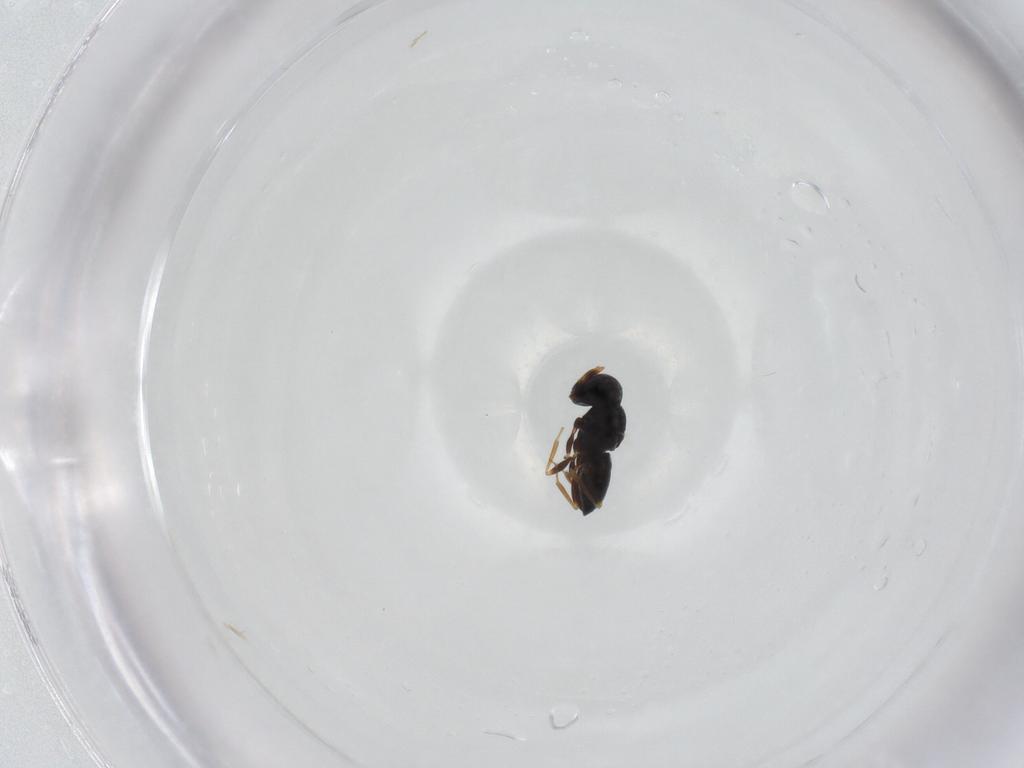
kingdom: Animalia
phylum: Arthropoda
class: Insecta
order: Hymenoptera
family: Scelionidae
